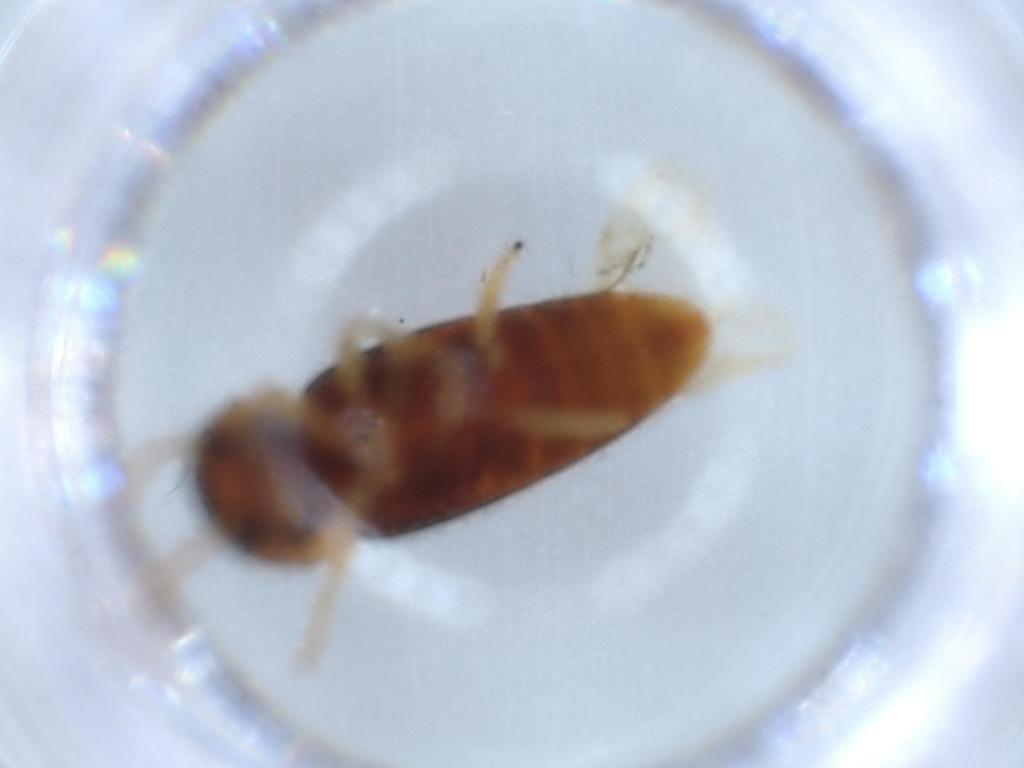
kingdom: Animalia
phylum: Arthropoda
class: Insecta
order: Coleoptera
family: Elateridae
